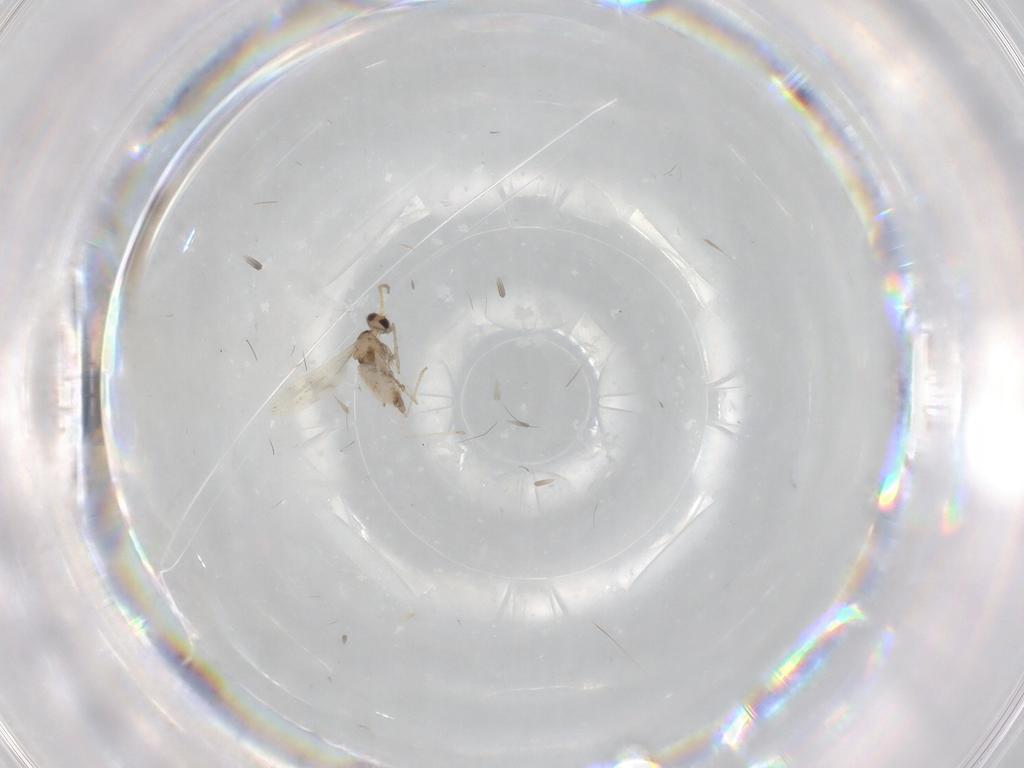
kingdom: Animalia
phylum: Arthropoda
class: Insecta
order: Diptera
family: Cecidomyiidae
